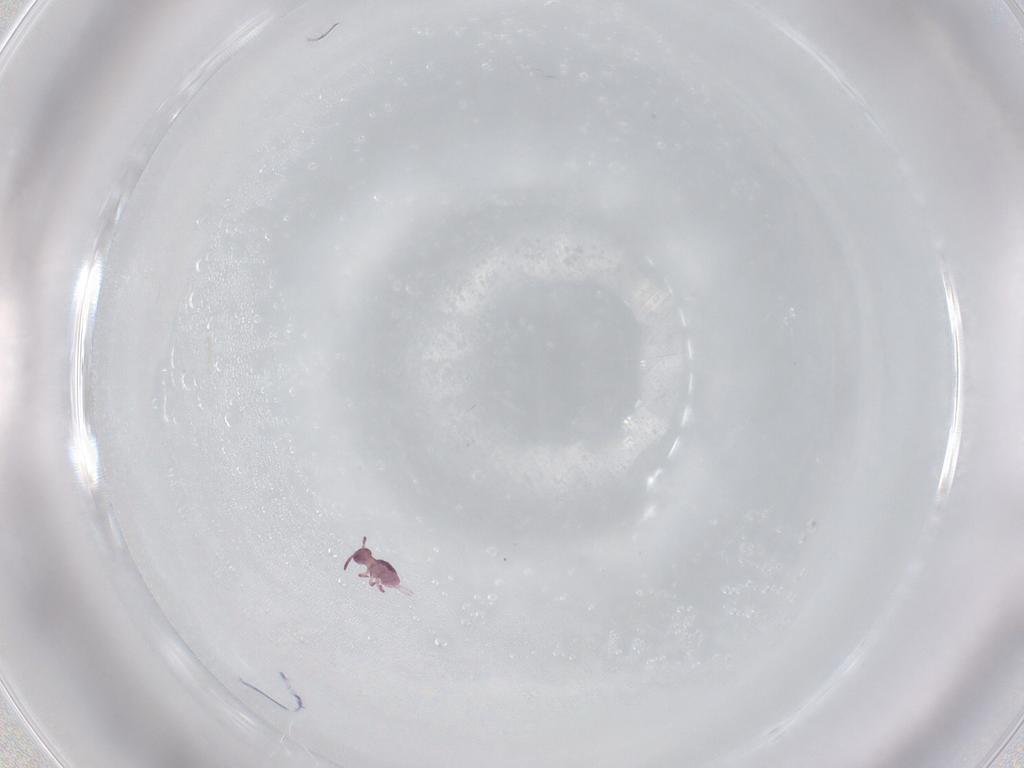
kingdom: Animalia
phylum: Arthropoda
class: Collembola
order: Symphypleona
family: Sminthurididae
